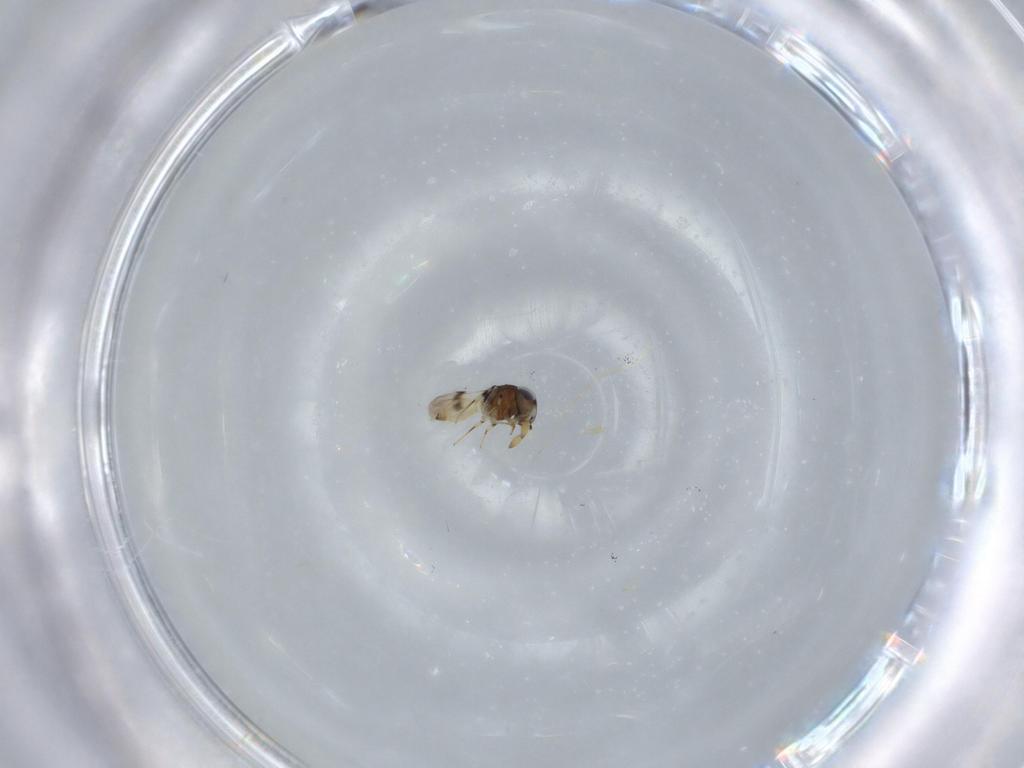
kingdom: Animalia
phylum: Arthropoda
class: Insecta
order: Hymenoptera
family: Scelionidae
